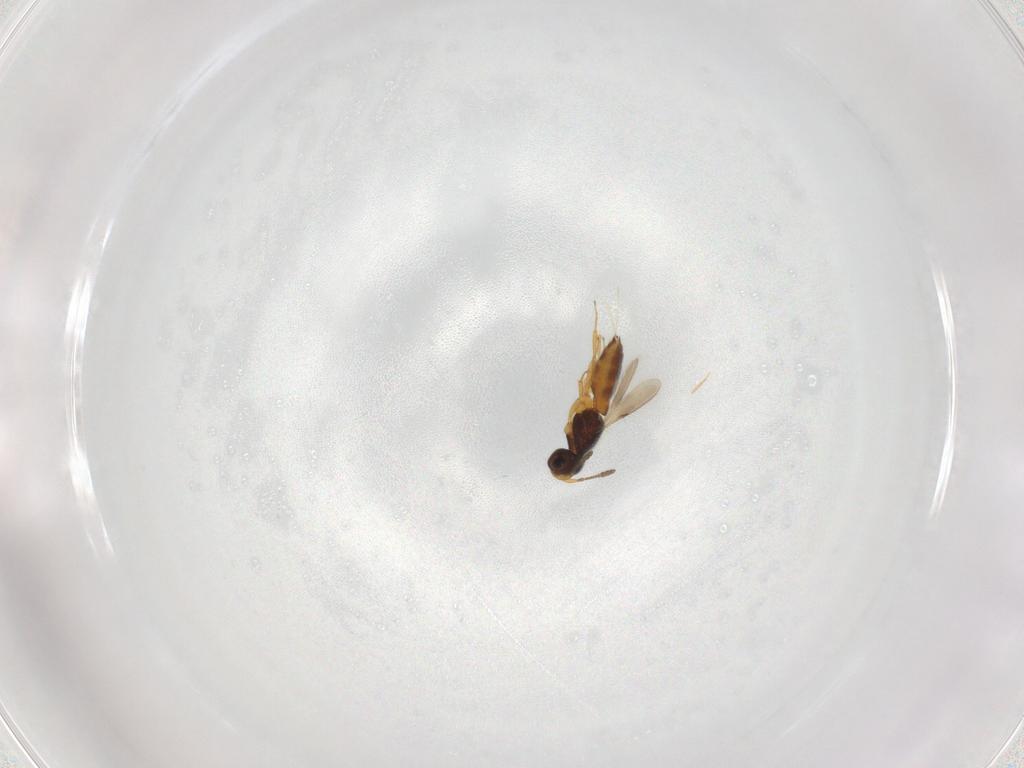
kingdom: Animalia
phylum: Arthropoda
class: Insecta
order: Hymenoptera
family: Scelionidae
